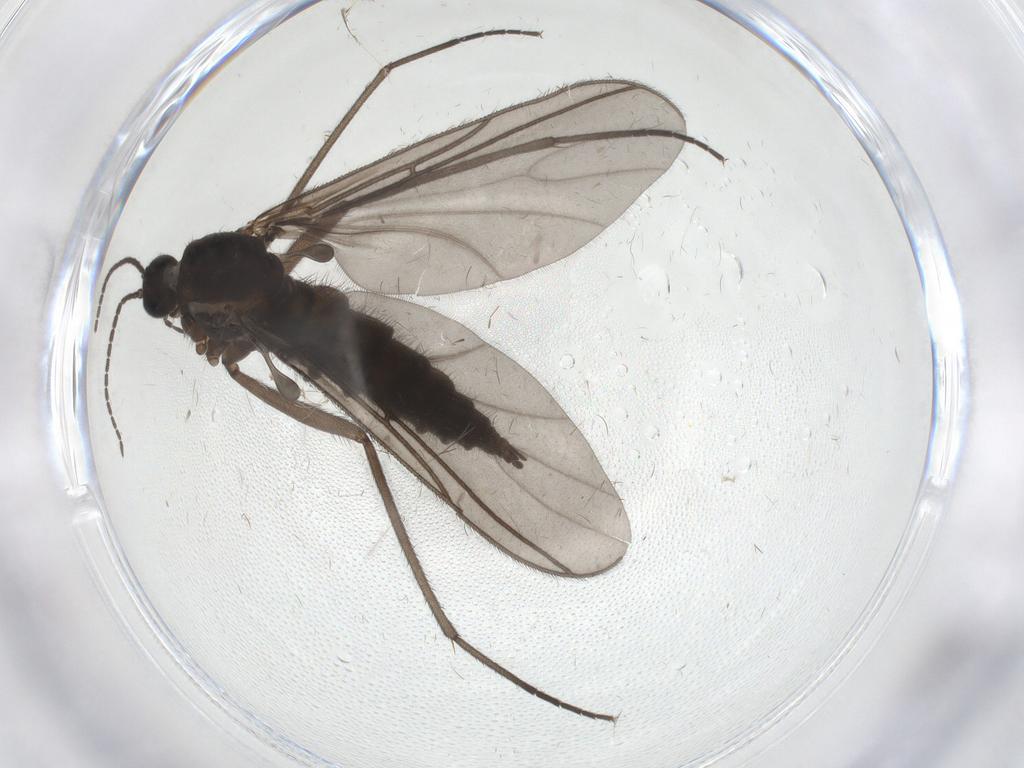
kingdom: Animalia
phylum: Arthropoda
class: Insecta
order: Diptera
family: Sciaridae
